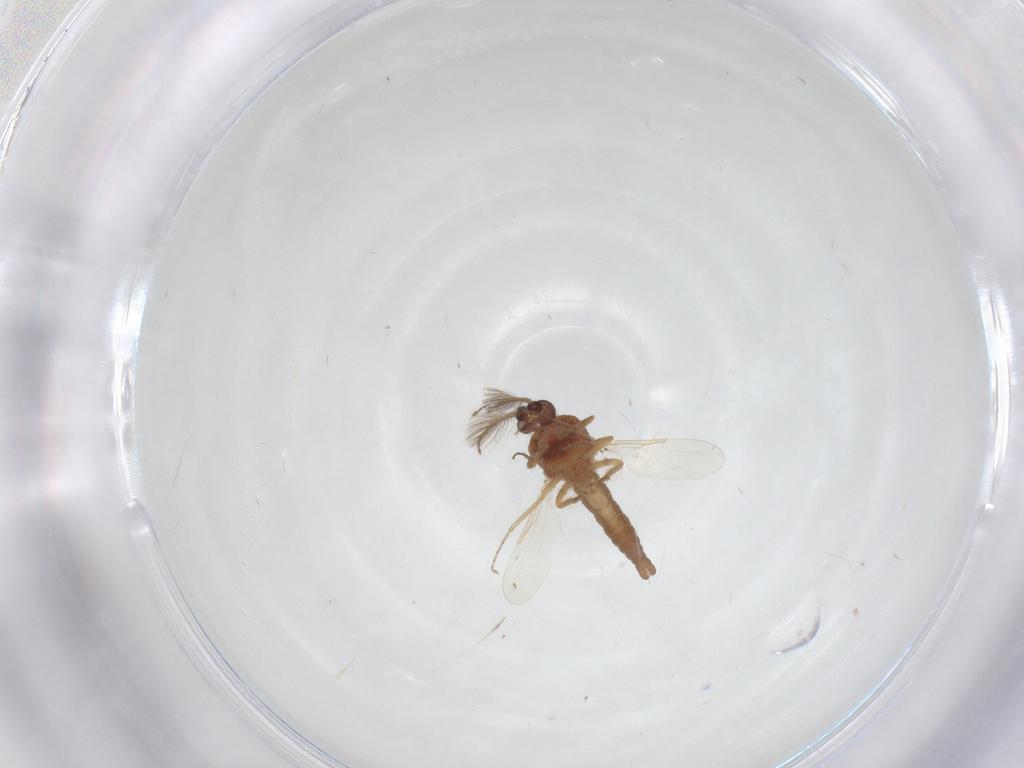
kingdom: Animalia
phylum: Arthropoda
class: Insecta
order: Diptera
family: Ceratopogonidae
